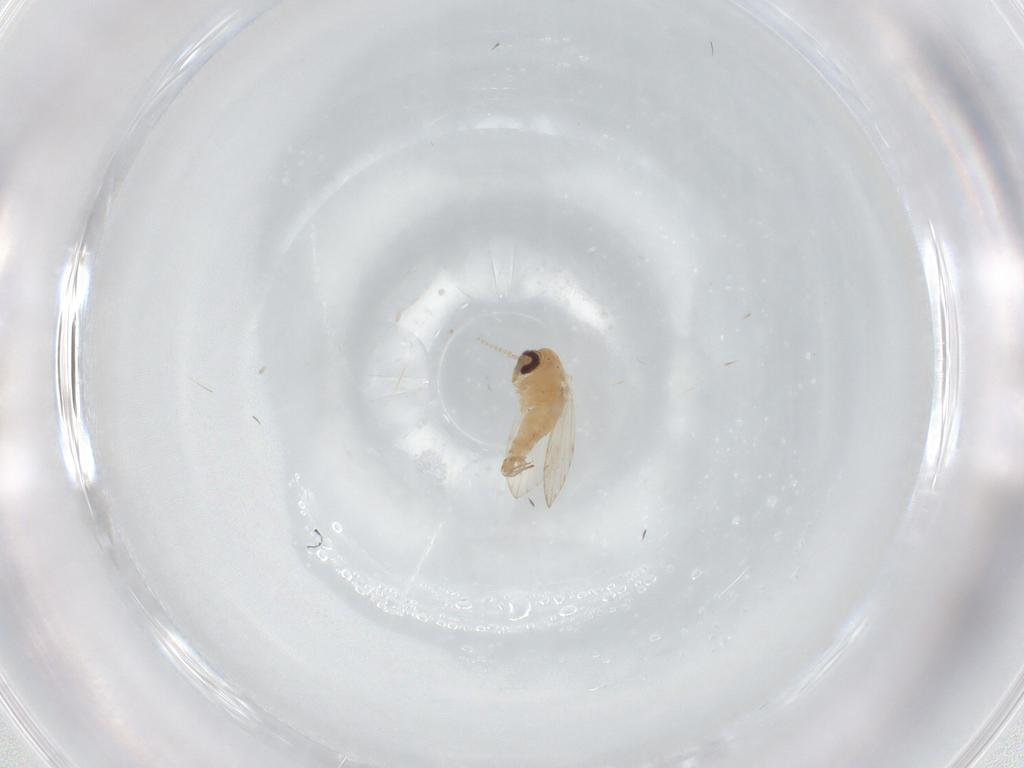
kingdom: Animalia
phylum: Arthropoda
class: Insecta
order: Diptera
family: Psychodidae
